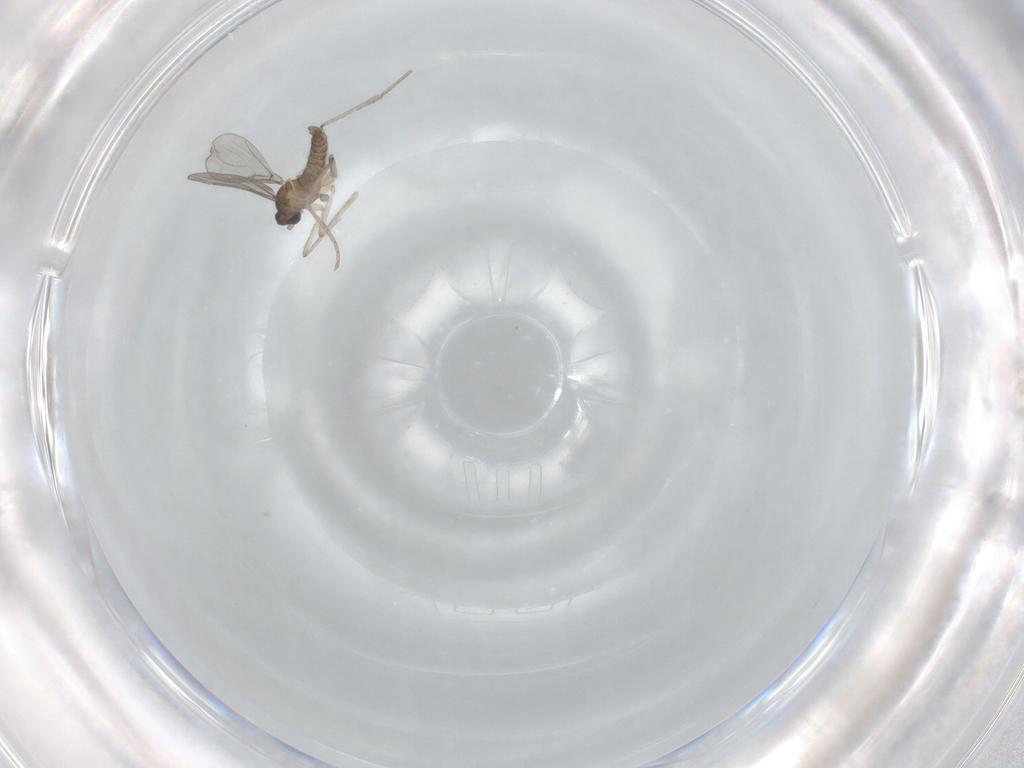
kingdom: Animalia
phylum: Arthropoda
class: Insecta
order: Diptera
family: Cecidomyiidae
